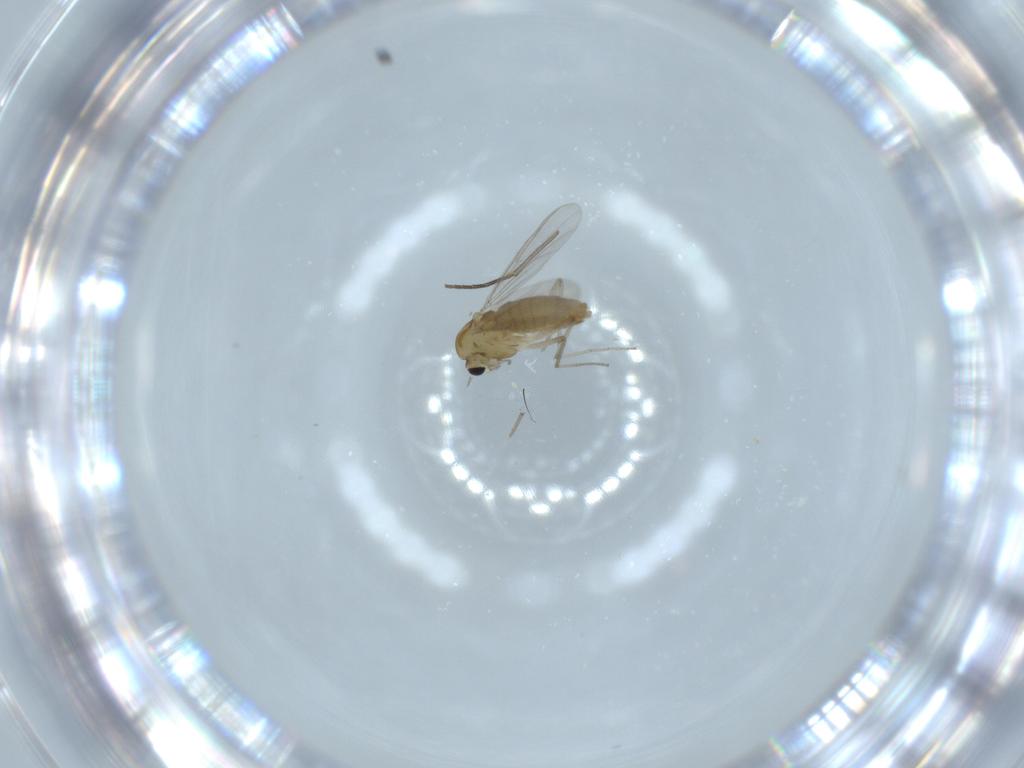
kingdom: Animalia
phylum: Arthropoda
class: Insecta
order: Diptera
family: Chironomidae
